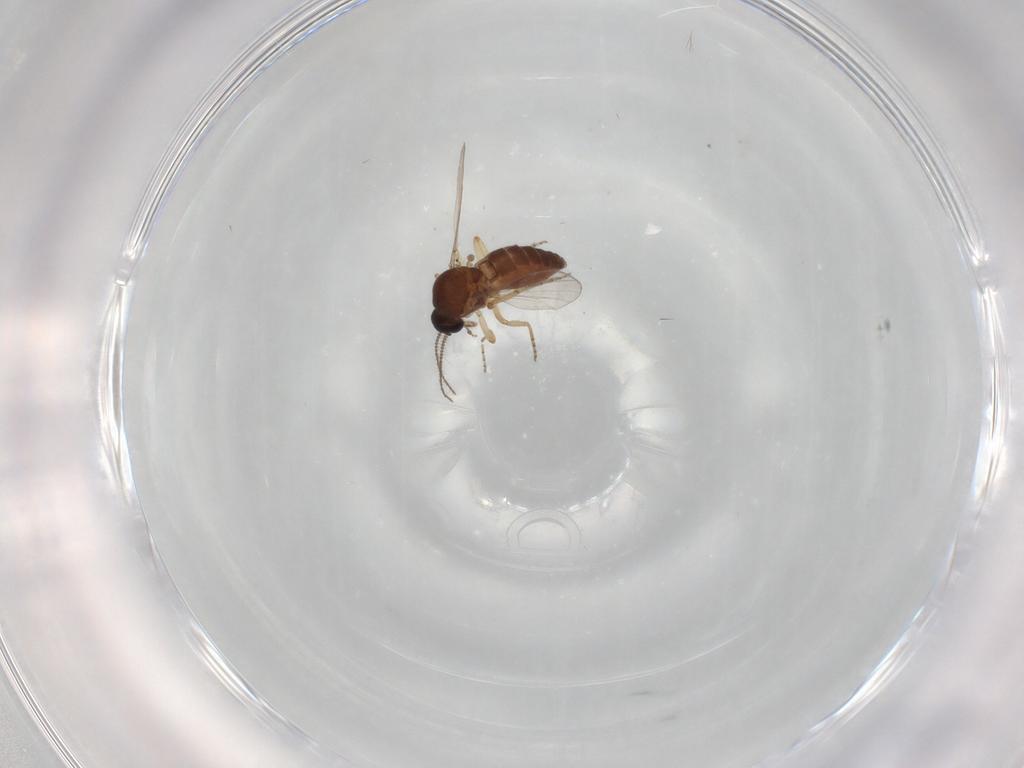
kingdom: Animalia
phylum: Arthropoda
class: Insecta
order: Diptera
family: Ceratopogonidae
